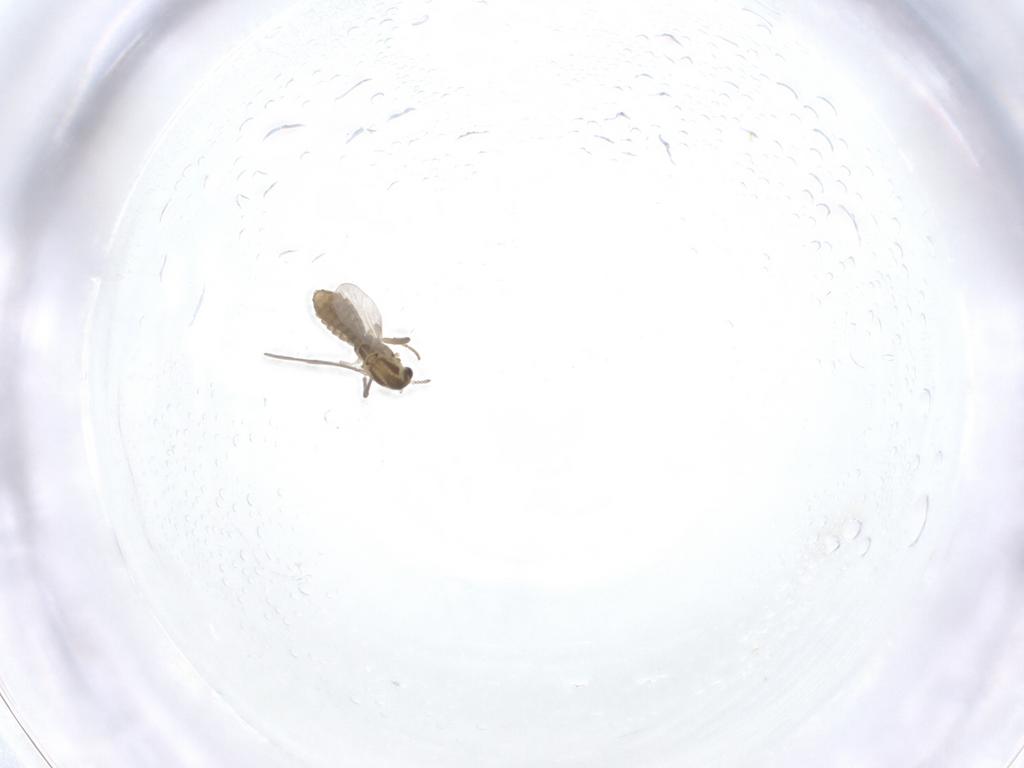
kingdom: Animalia
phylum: Arthropoda
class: Insecta
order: Diptera
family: Chironomidae
